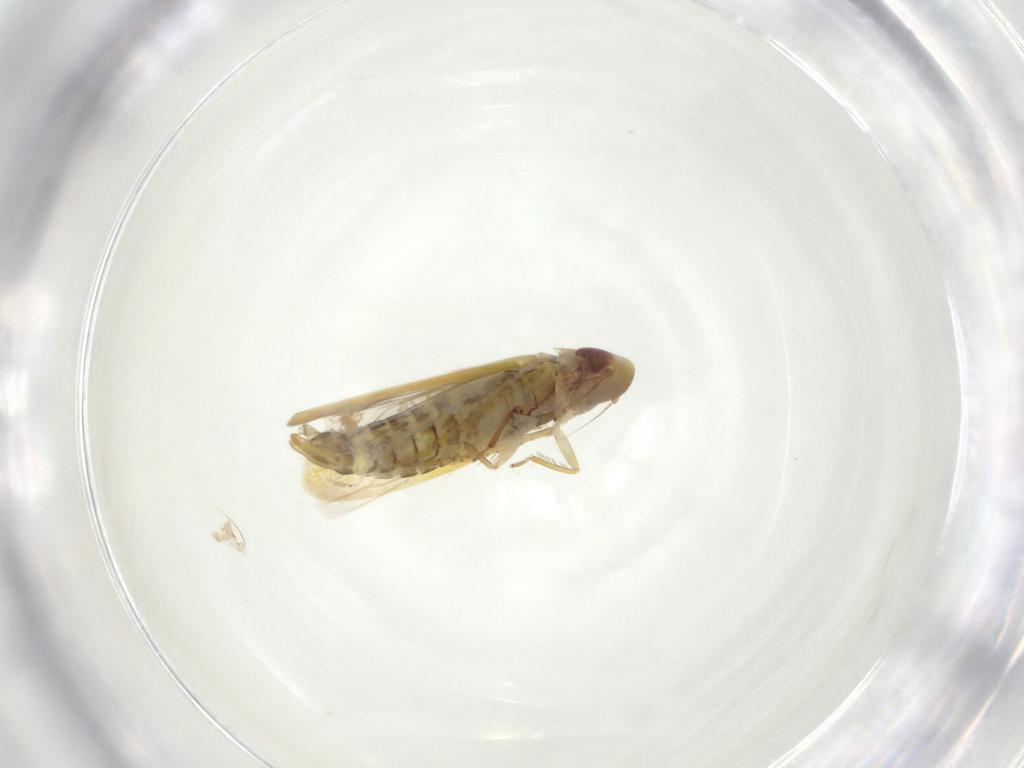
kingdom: Animalia
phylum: Arthropoda
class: Insecta
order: Hemiptera
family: Cicadellidae
